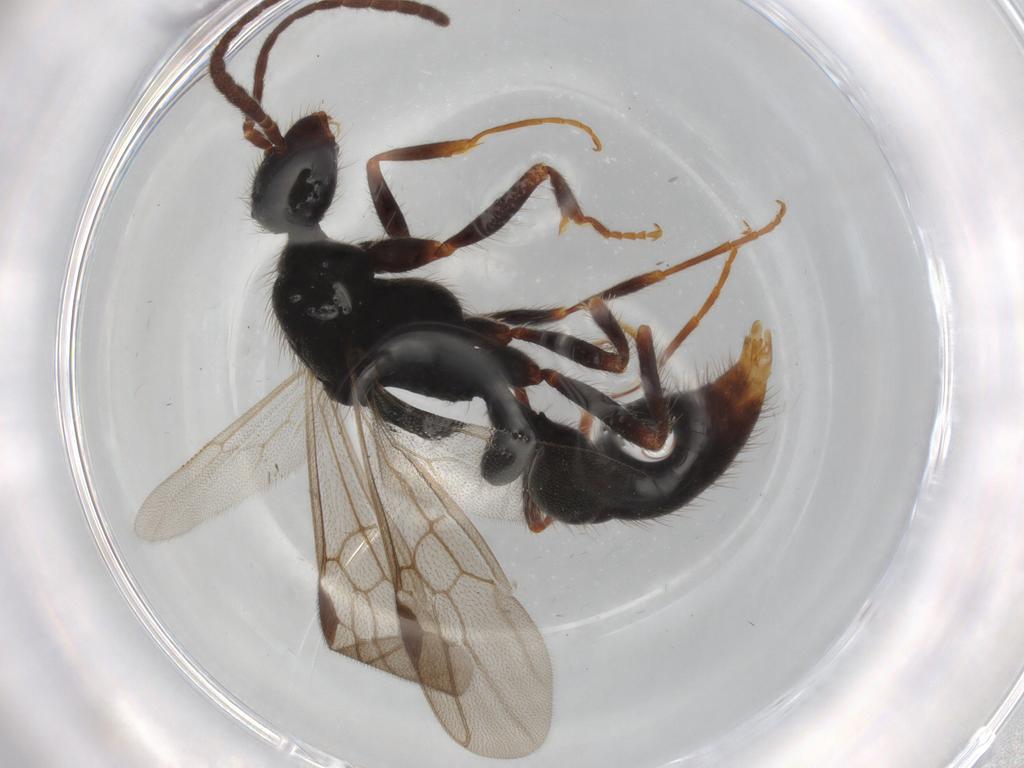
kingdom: Animalia
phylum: Arthropoda
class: Insecta
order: Hymenoptera
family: Formicidae
